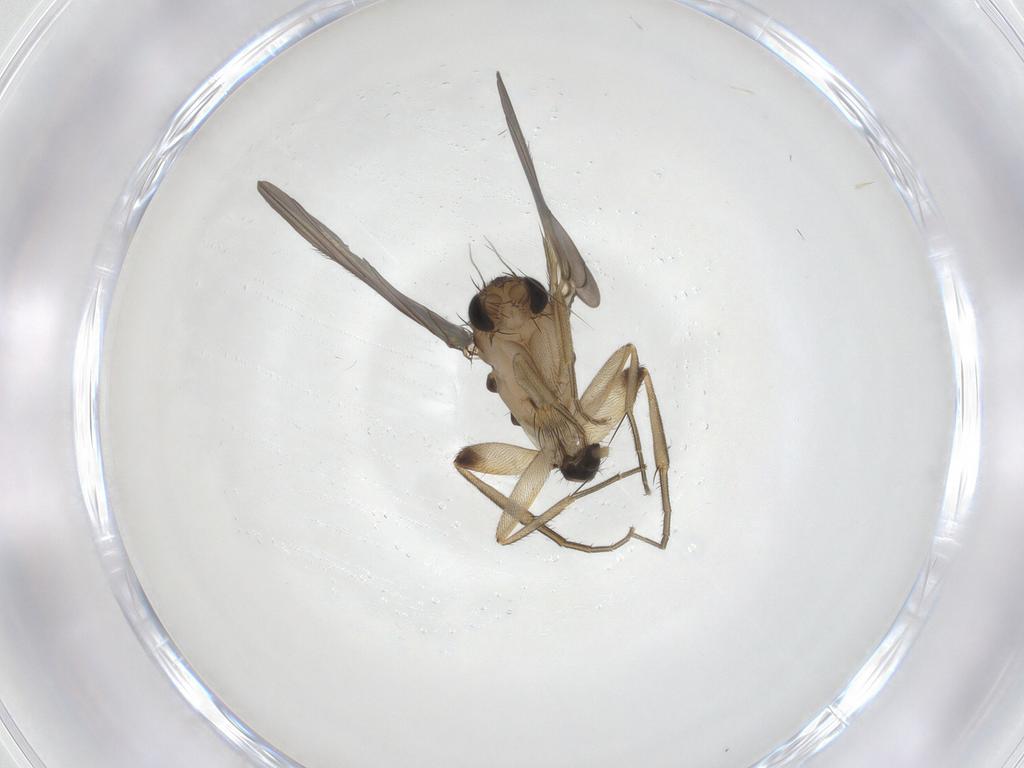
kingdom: Animalia
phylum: Arthropoda
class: Insecta
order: Diptera
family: Phoridae
